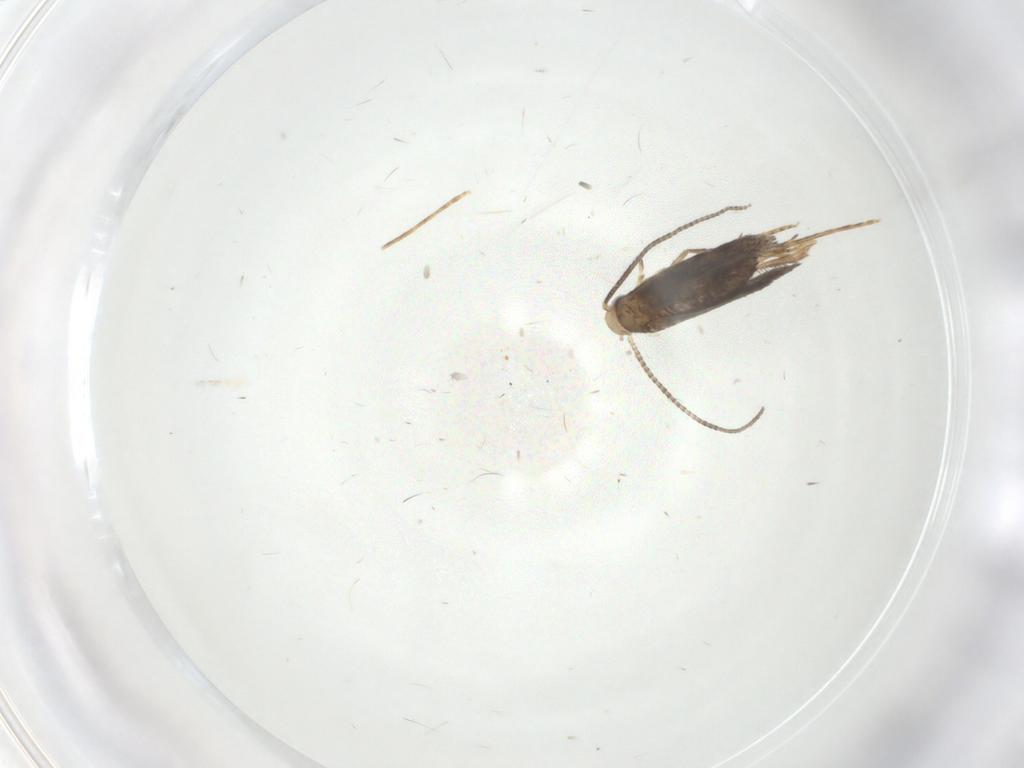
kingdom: Animalia
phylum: Arthropoda
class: Insecta
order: Lepidoptera
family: Gracillariidae
